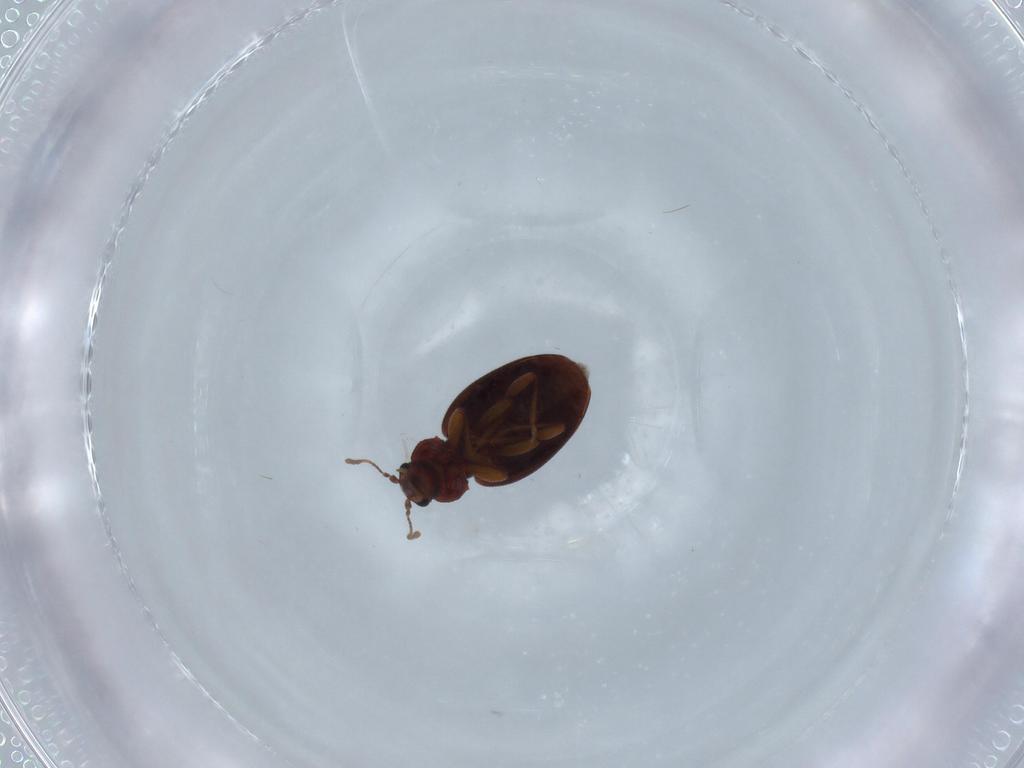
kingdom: Animalia
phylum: Arthropoda
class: Insecta
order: Coleoptera
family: Latridiidae
